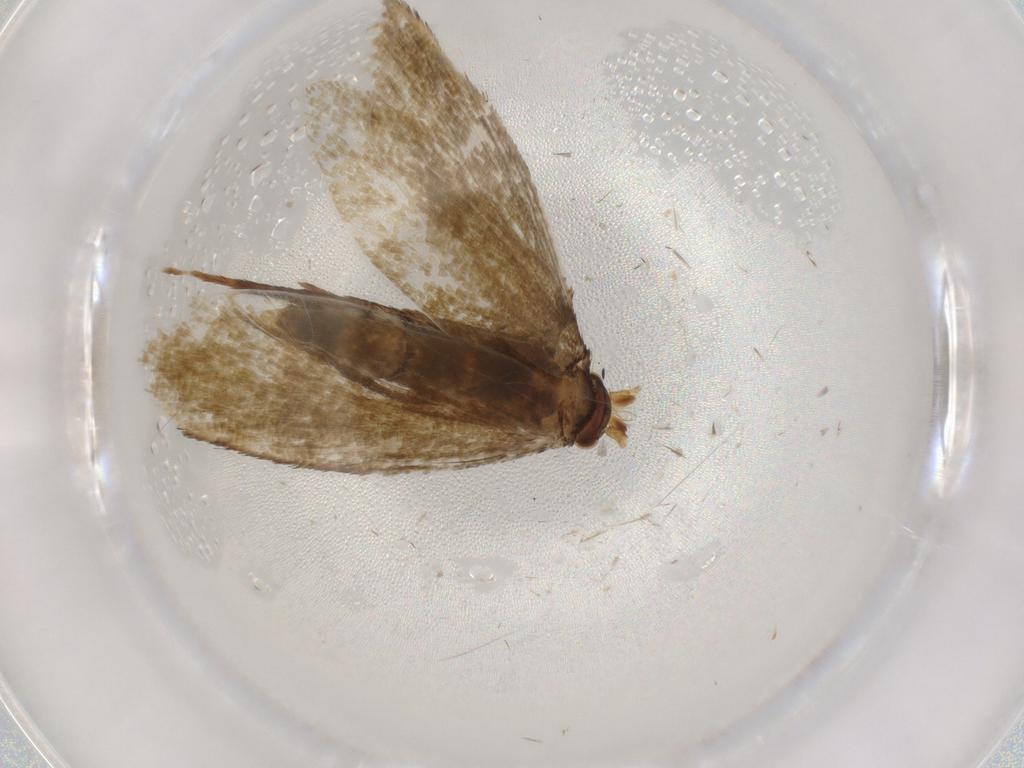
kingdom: Animalia
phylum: Arthropoda
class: Insecta
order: Lepidoptera
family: Tineidae
